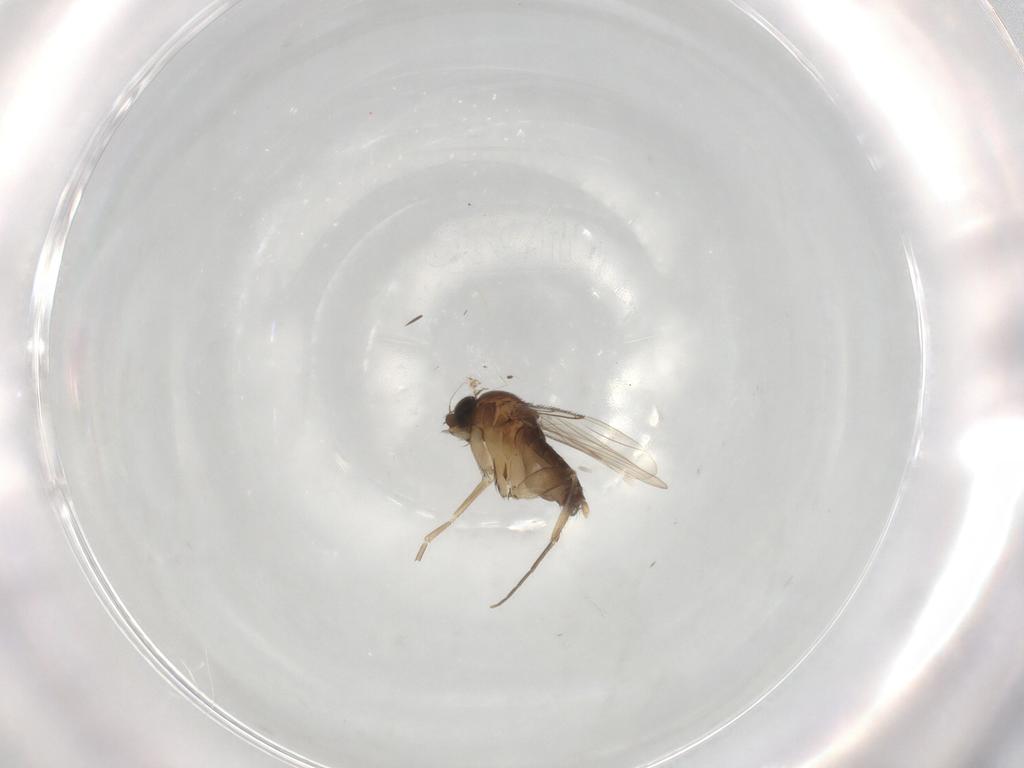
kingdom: Animalia
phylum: Arthropoda
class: Insecta
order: Diptera
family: Phoridae
